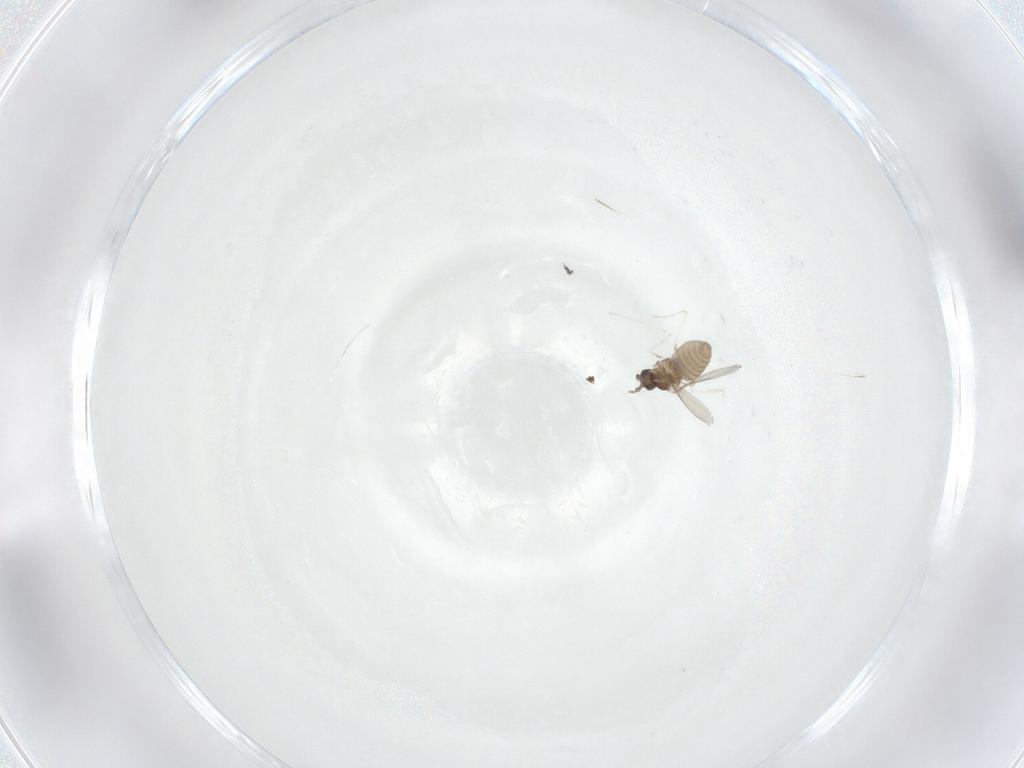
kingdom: Animalia
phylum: Arthropoda
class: Insecta
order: Diptera
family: Cecidomyiidae
